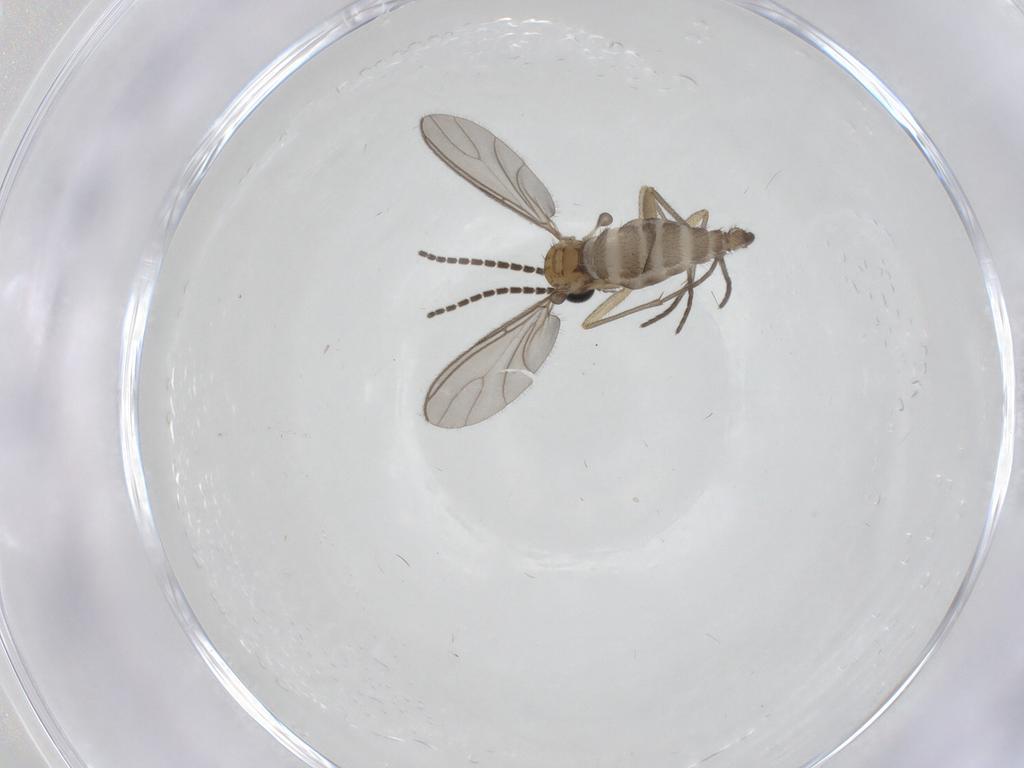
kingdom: Animalia
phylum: Arthropoda
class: Insecta
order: Diptera
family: Sciaridae
